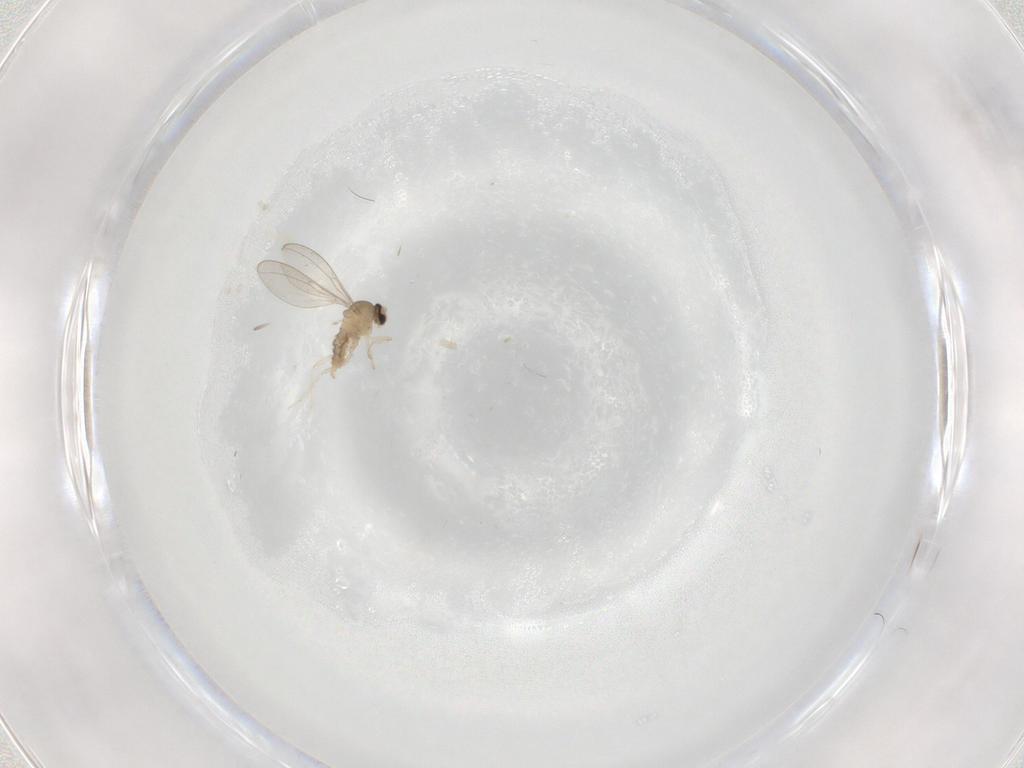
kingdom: Animalia
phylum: Arthropoda
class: Insecta
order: Diptera
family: Cecidomyiidae
